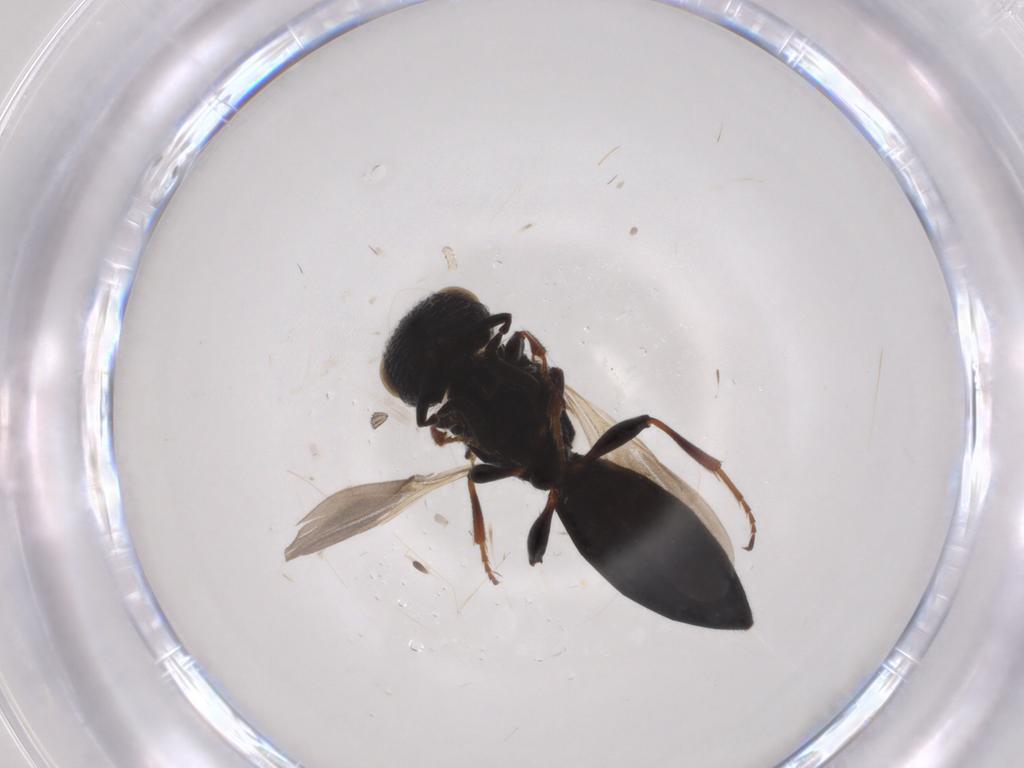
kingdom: Animalia
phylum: Arthropoda
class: Insecta
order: Hymenoptera
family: Scelionidae
